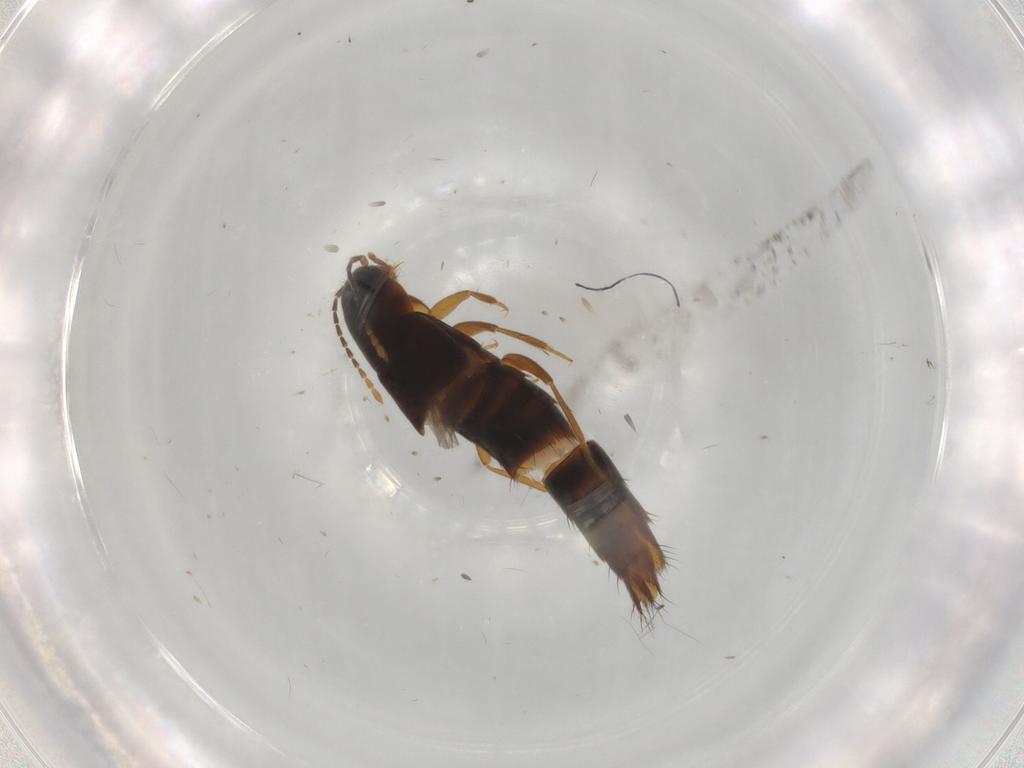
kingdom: Animalia
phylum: Arthropoda
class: Insecta
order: Coleoptera
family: Staphylinidae
